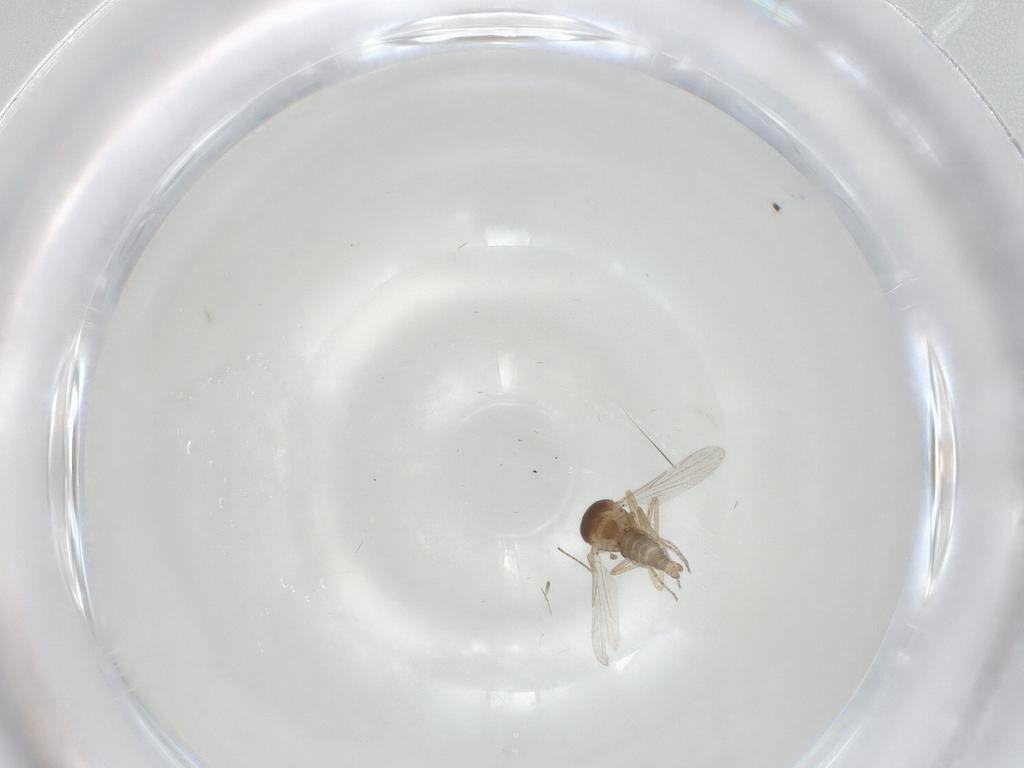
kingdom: Animalia
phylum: Arthropoda
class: Insecta
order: Diptera
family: Ceratopogonidae
